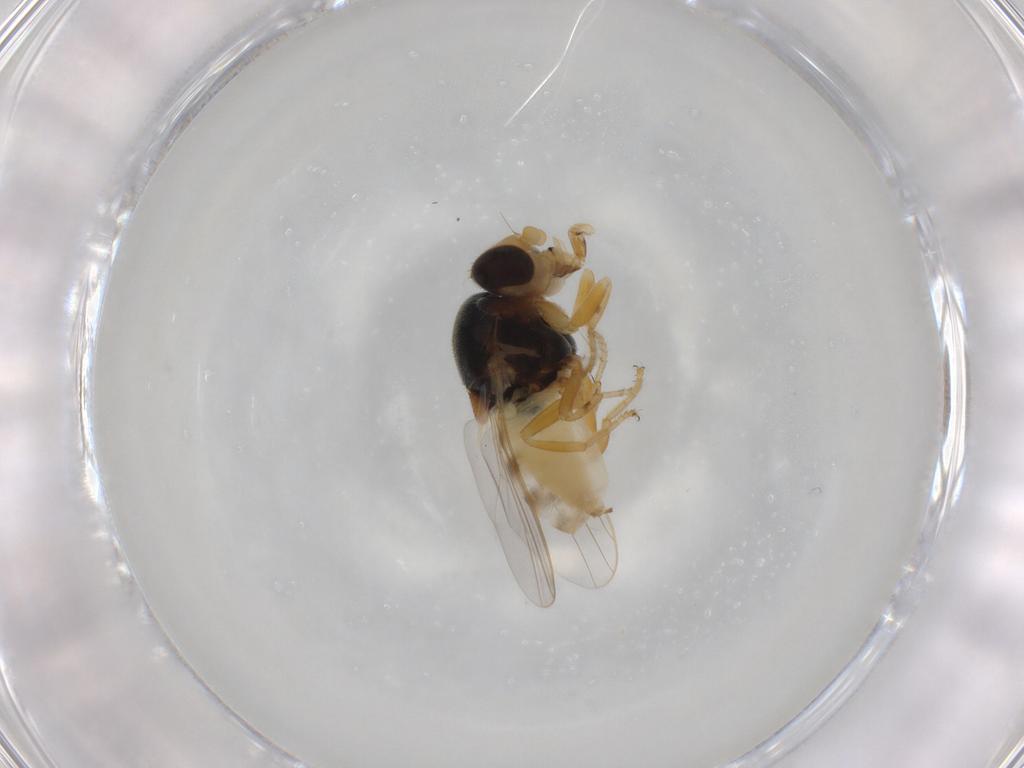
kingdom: Animalia
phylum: Arthropoda
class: Insecta
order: Diptera
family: Chloropidae
